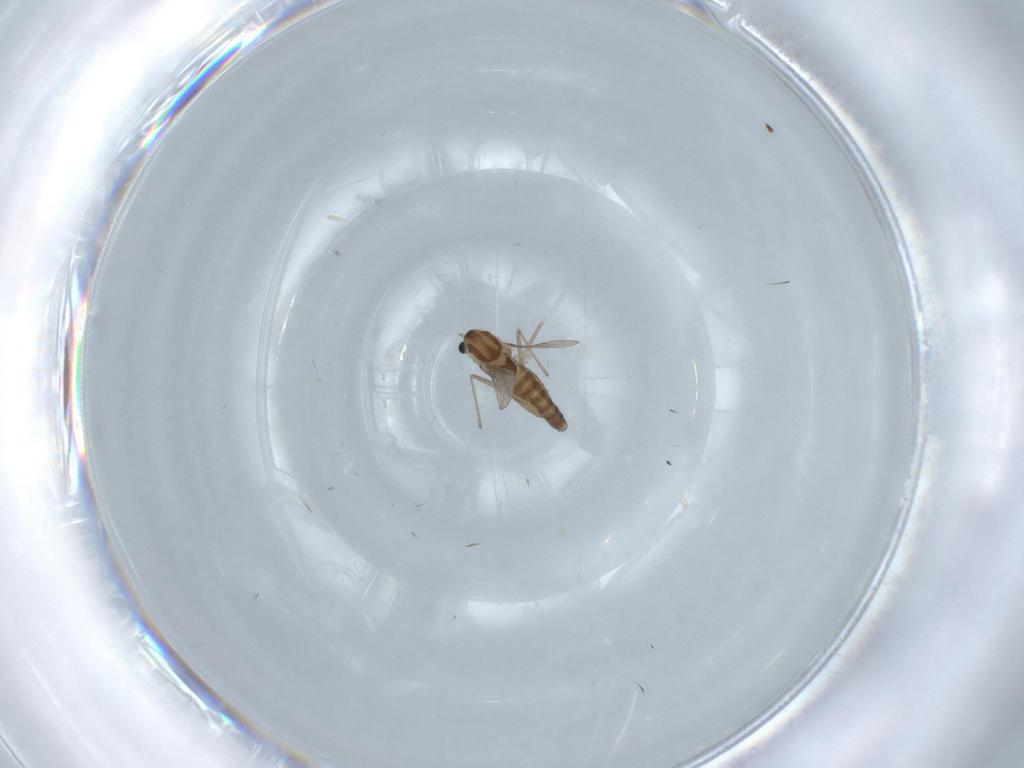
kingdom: Animalia
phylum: Arthropoda
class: Insecta
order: Diptera
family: Chironomidae
